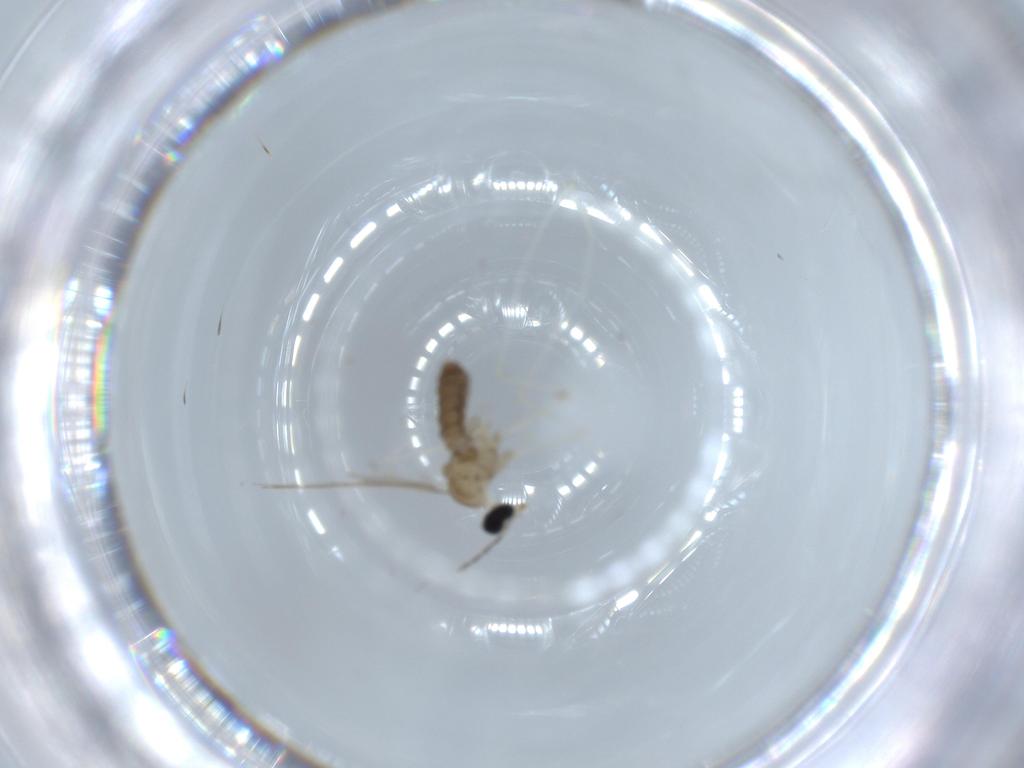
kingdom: Animalia
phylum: Arthropoda
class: Insecta
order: Diptera
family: Cecidomyiidae
